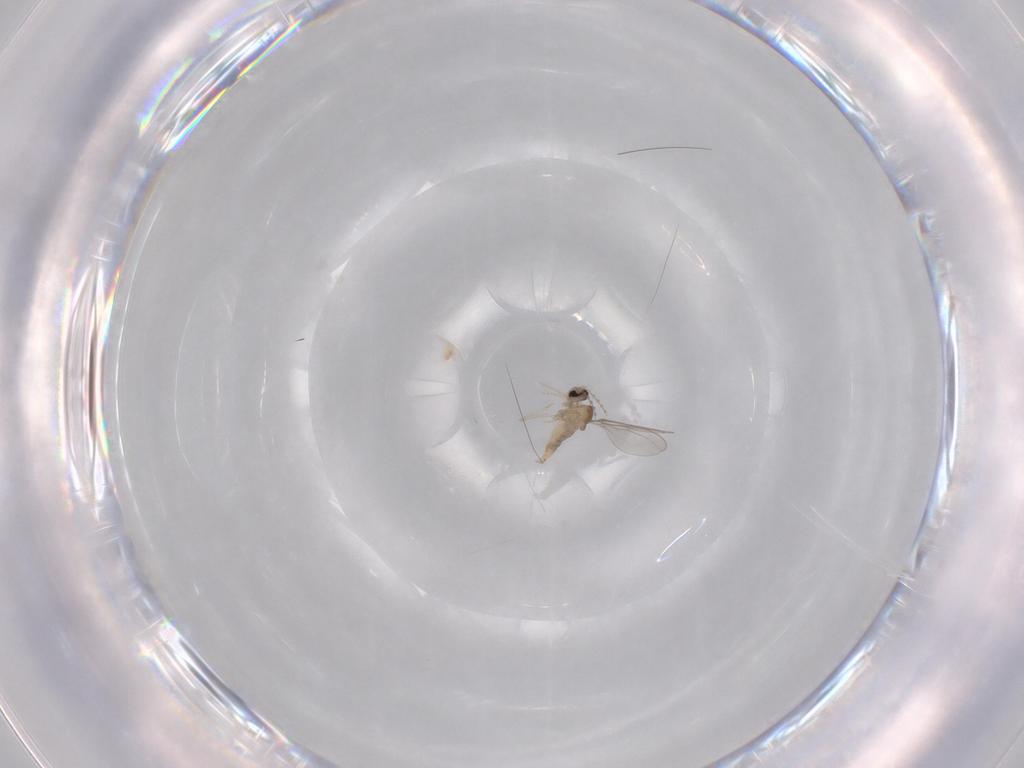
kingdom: Animalia
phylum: Arthropoda
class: Insecta
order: Diptera
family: Cecidomyiidae
